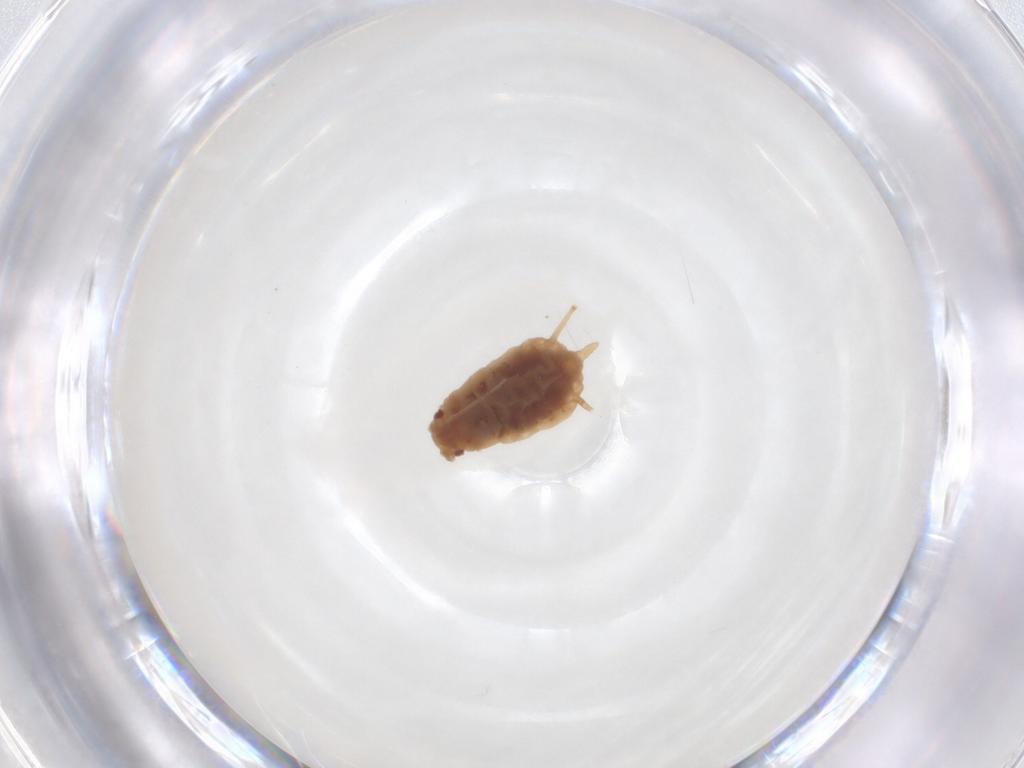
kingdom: Animalia
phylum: Arthropoda
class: Insecta
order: Hemiptera
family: Aphididae
